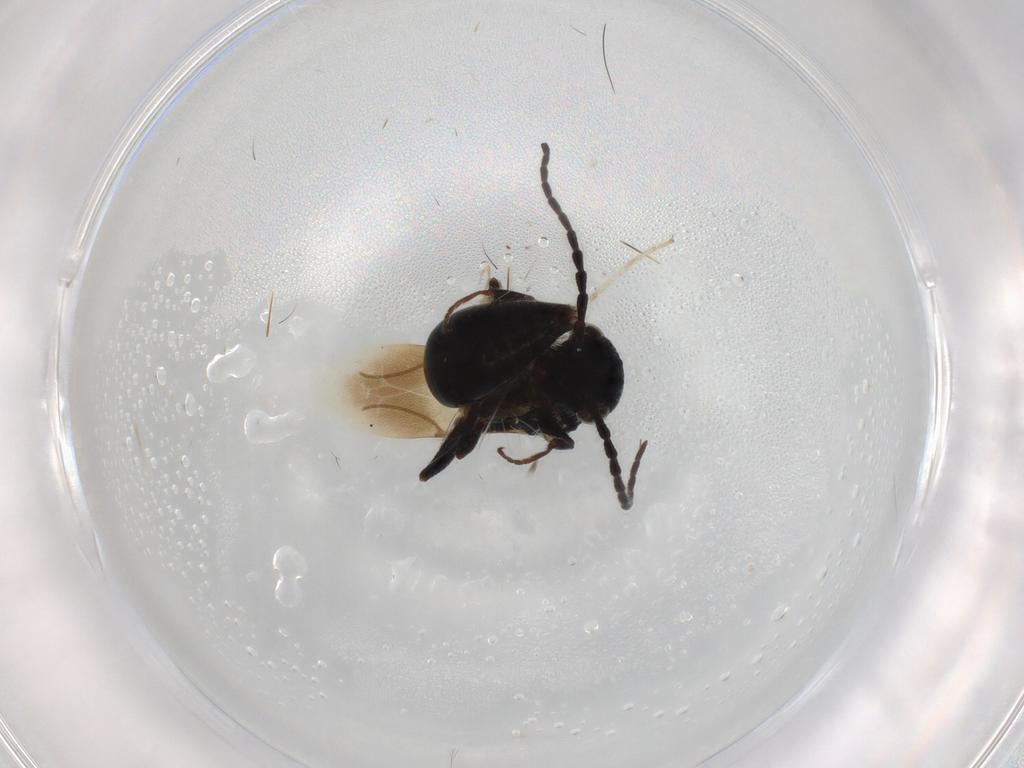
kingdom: Animalia
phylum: Arthropoda
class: Insecta
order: Hymenoptera
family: Bethylidae
